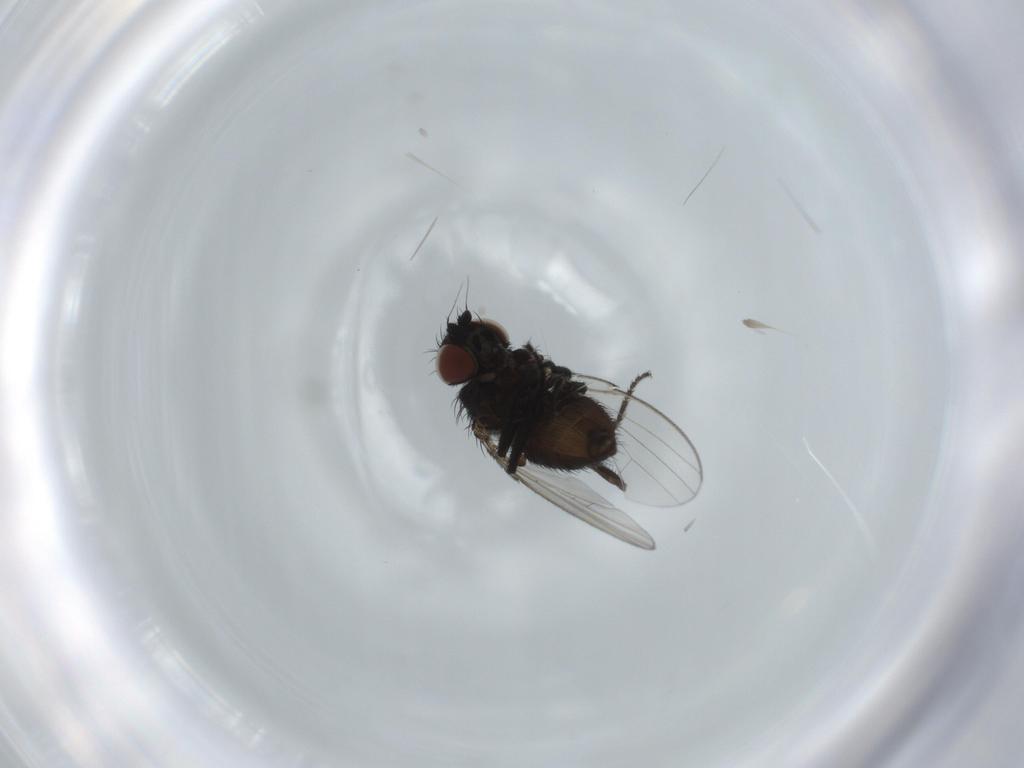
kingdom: Animalia
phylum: Arthropoda
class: Insecta
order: Diptera
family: Milichiidae
